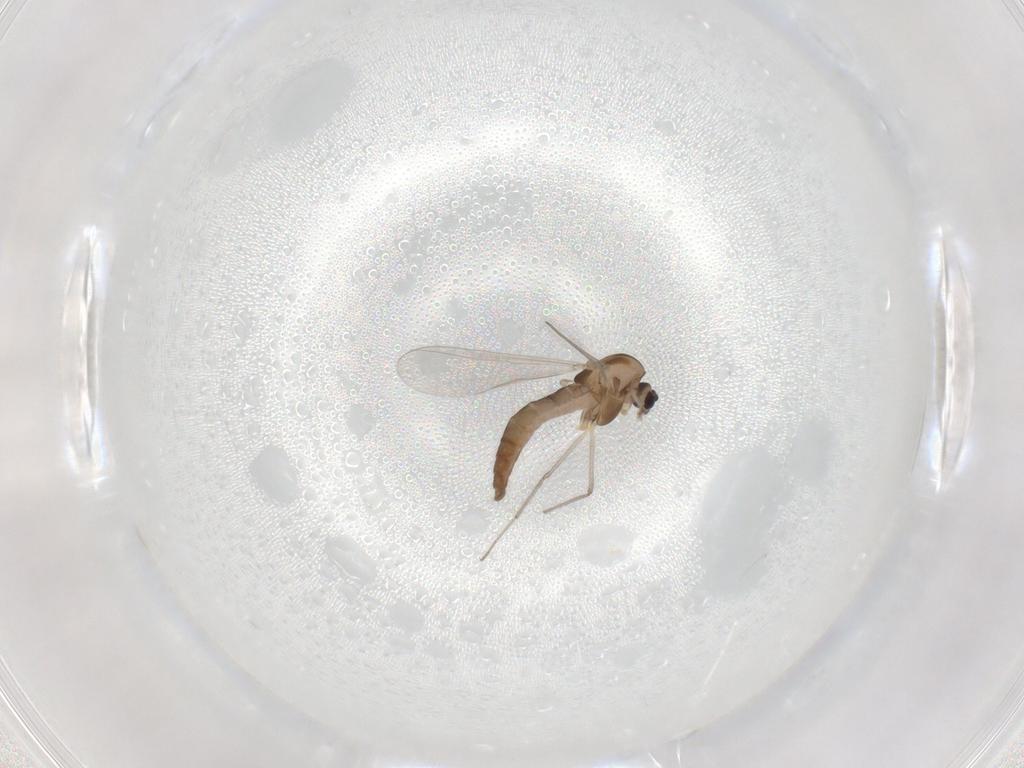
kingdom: Animalia
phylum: Arthropoda
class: Insecta
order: Diptera
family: Chironomidae
